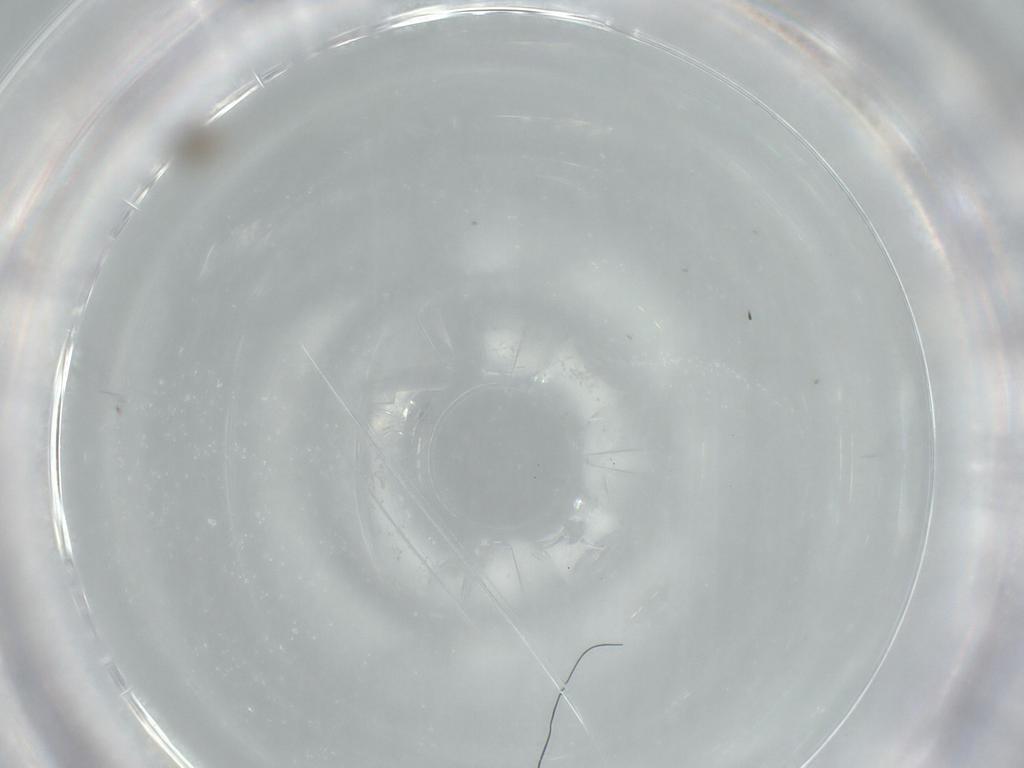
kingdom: Animalia
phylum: Arthropoda
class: Insecta
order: Diptera
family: Cecidomyiidae
